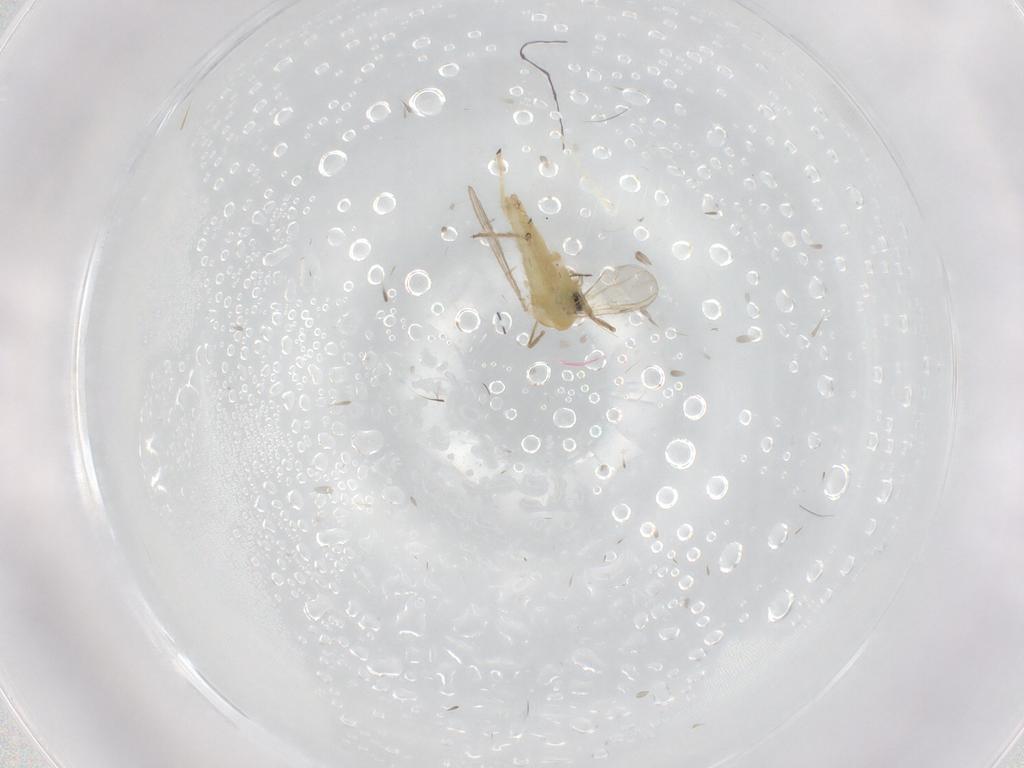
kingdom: Animalia
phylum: Arthropoda
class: Insecta
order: Diptera
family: Chironomidae
